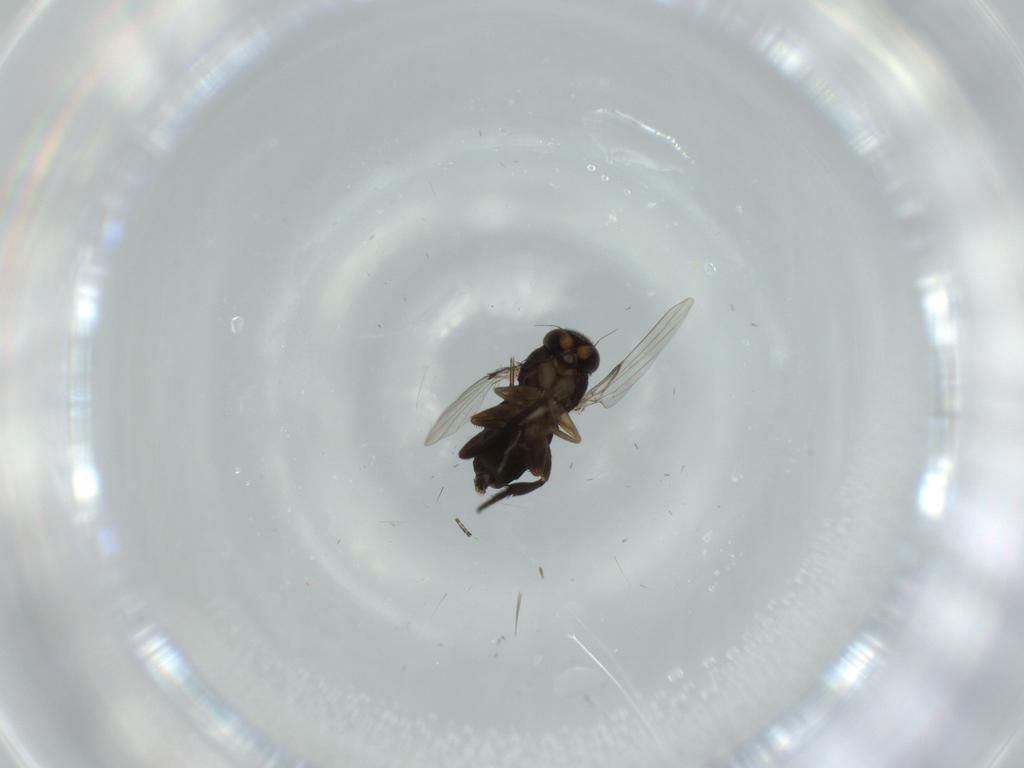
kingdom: Animalia
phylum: Arthropoda
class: Insecta
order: Diptera
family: Phoridae
